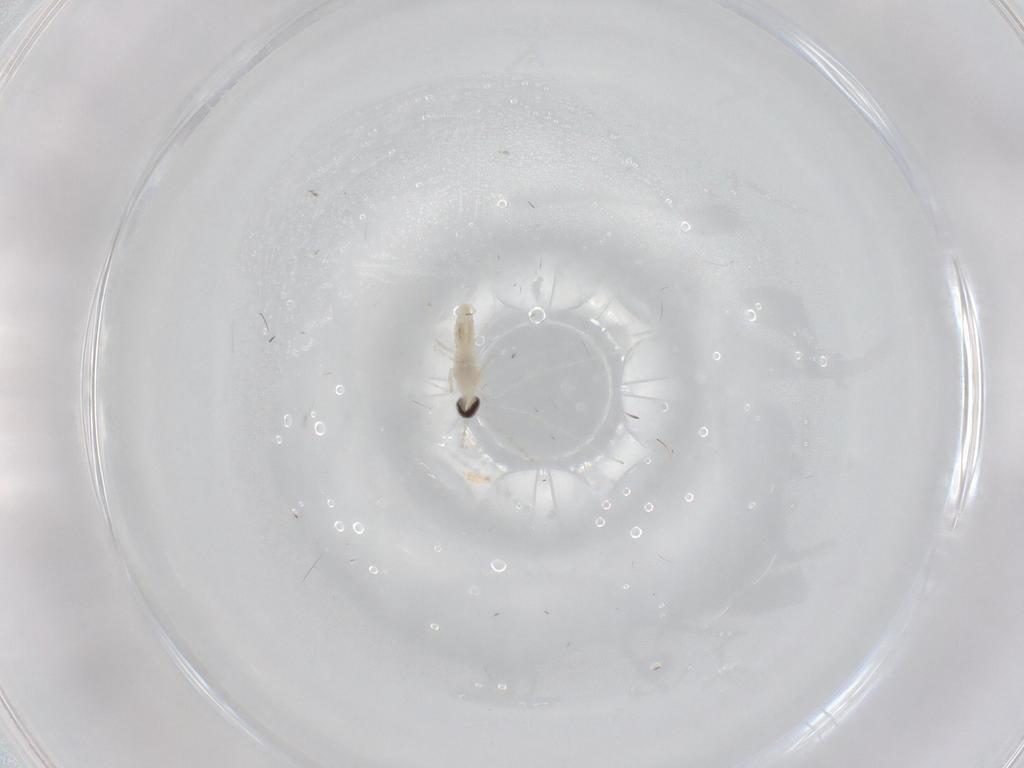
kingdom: Animalia
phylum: Arthropoda
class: Insecta
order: Diptera
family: Cecidomyiidae
